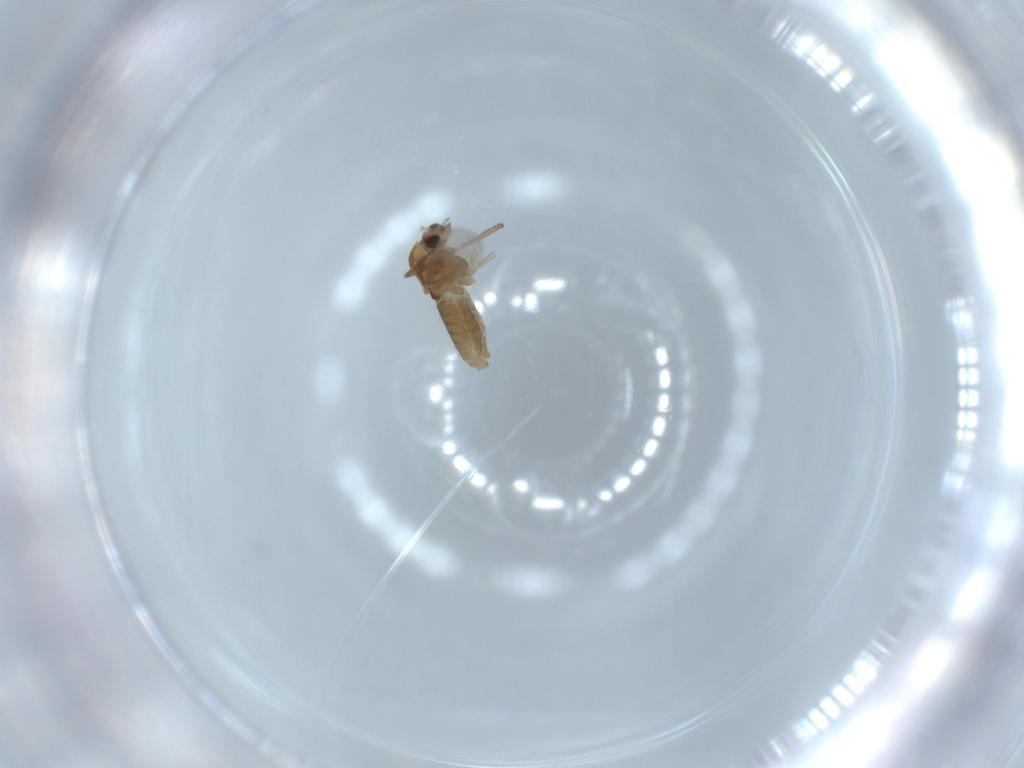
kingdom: Animalia
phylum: Arthropoda
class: Insecta
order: Diptera
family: Chironomidae
